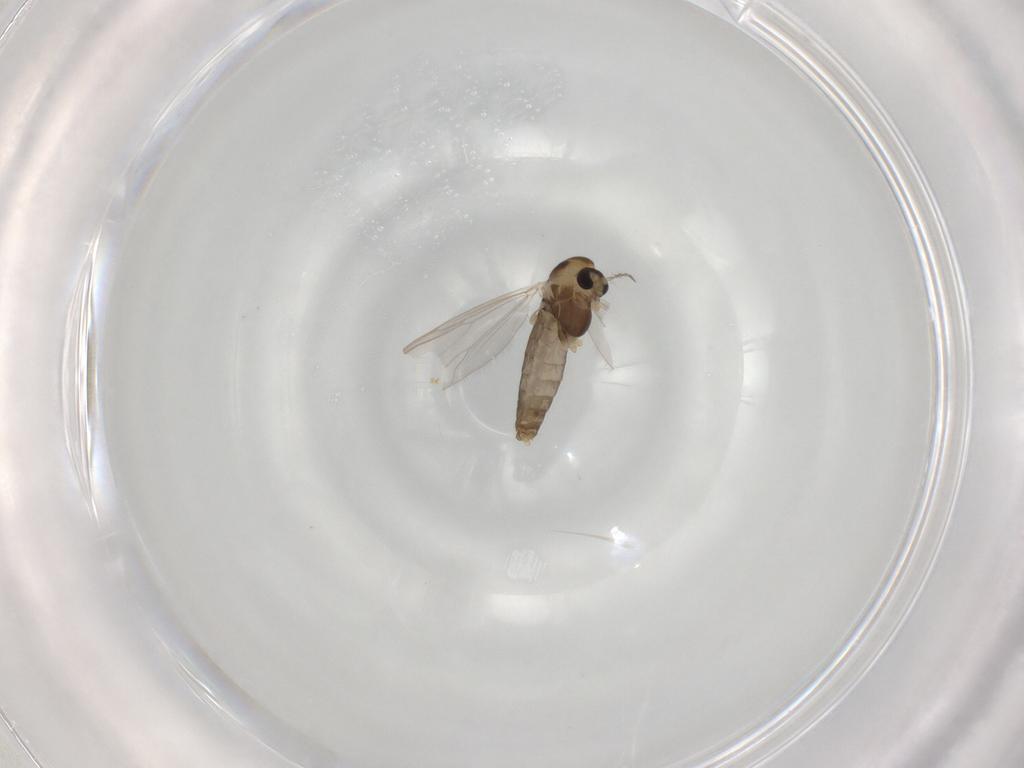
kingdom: Animalia
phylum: Arthropoda
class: Insecta
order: Diptera
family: Chironomidae
